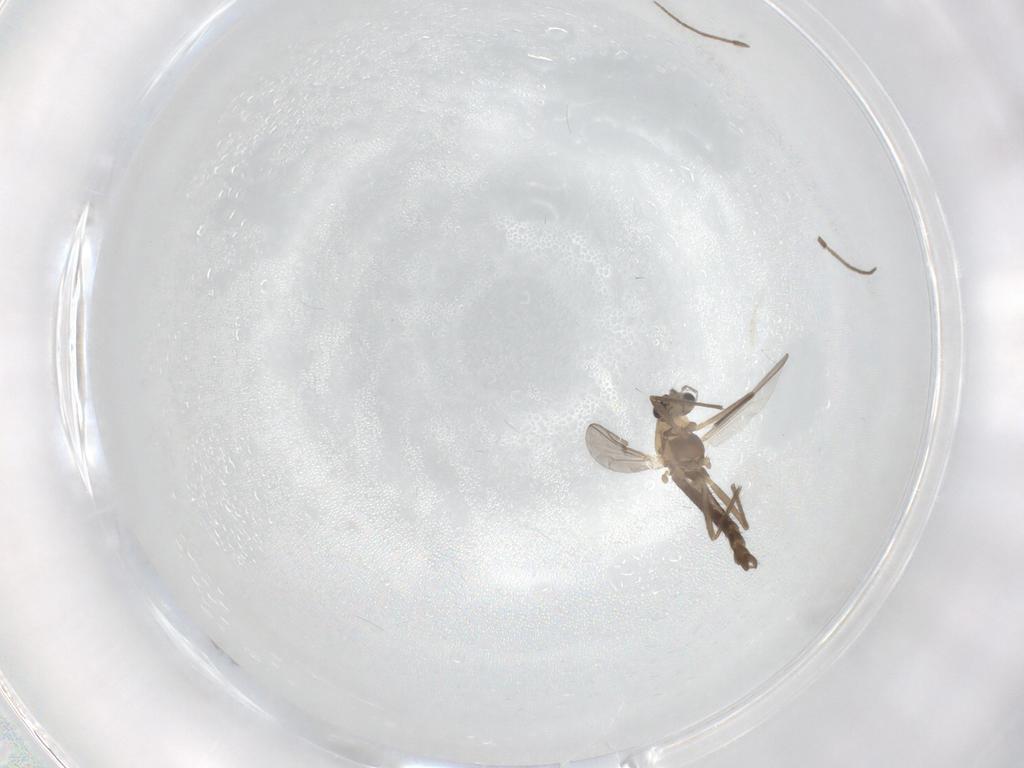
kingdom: Animalia
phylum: Arthropoda
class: Insecta
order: Diptera
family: Chironomidae
